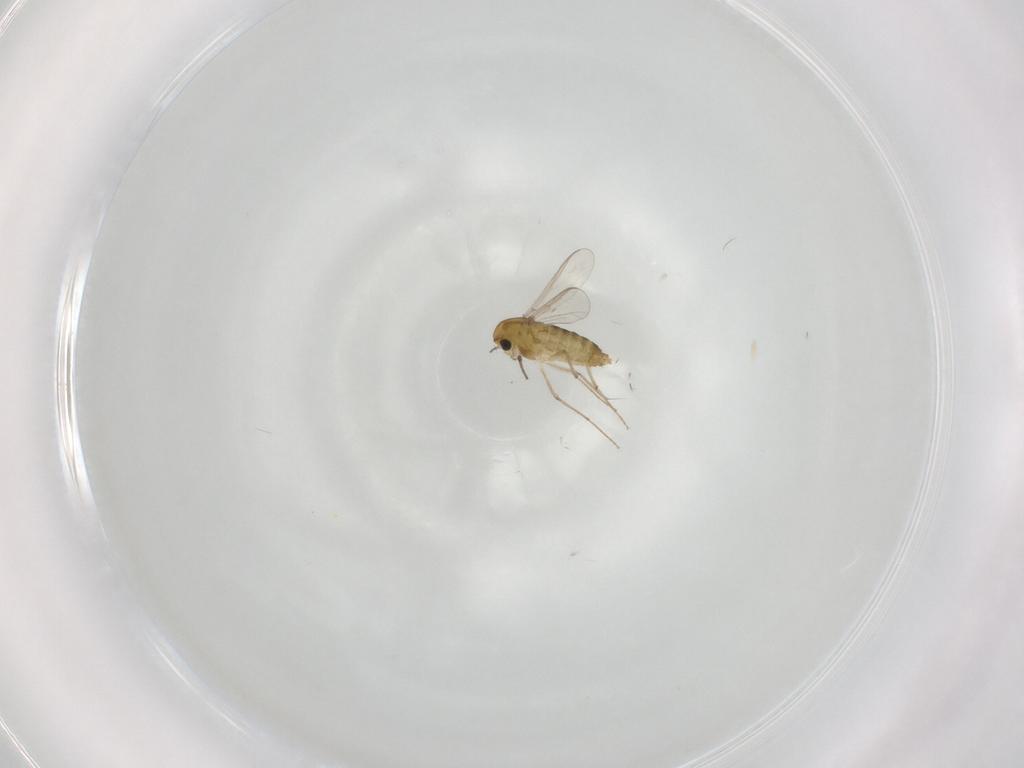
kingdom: Animalia
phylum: Arthropoda
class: Insecta
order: Diptera
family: Chironomidae
